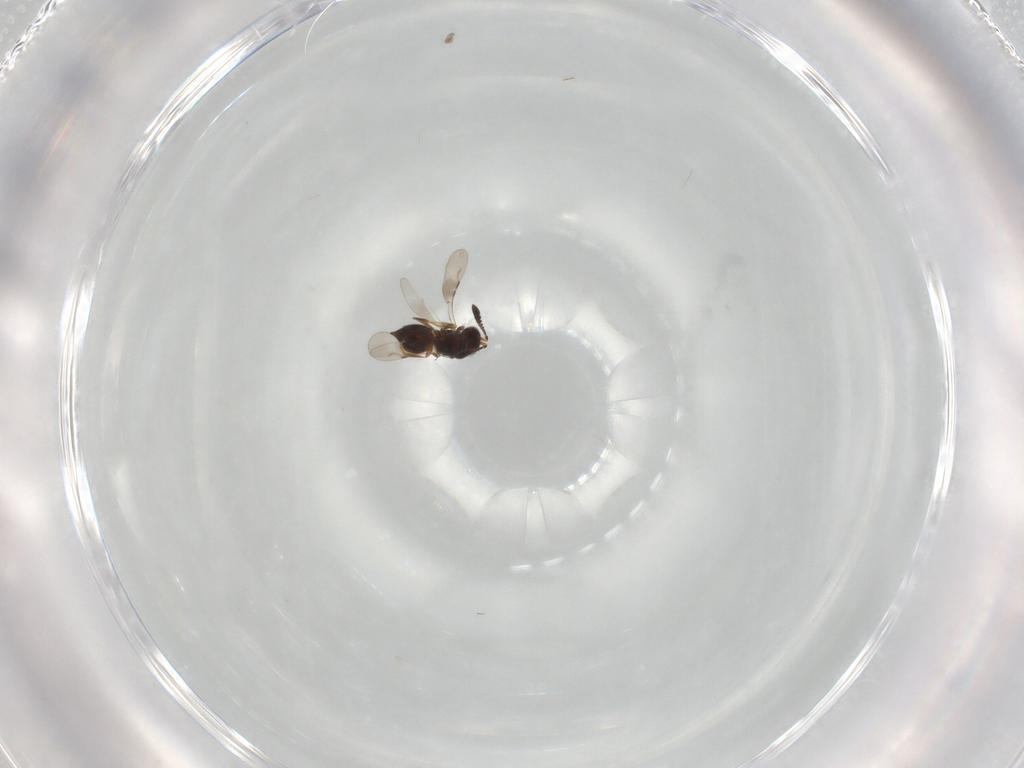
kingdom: Animalia
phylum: Arthropoda
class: Insecta
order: Hymenoptera
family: Ceraphronidae
